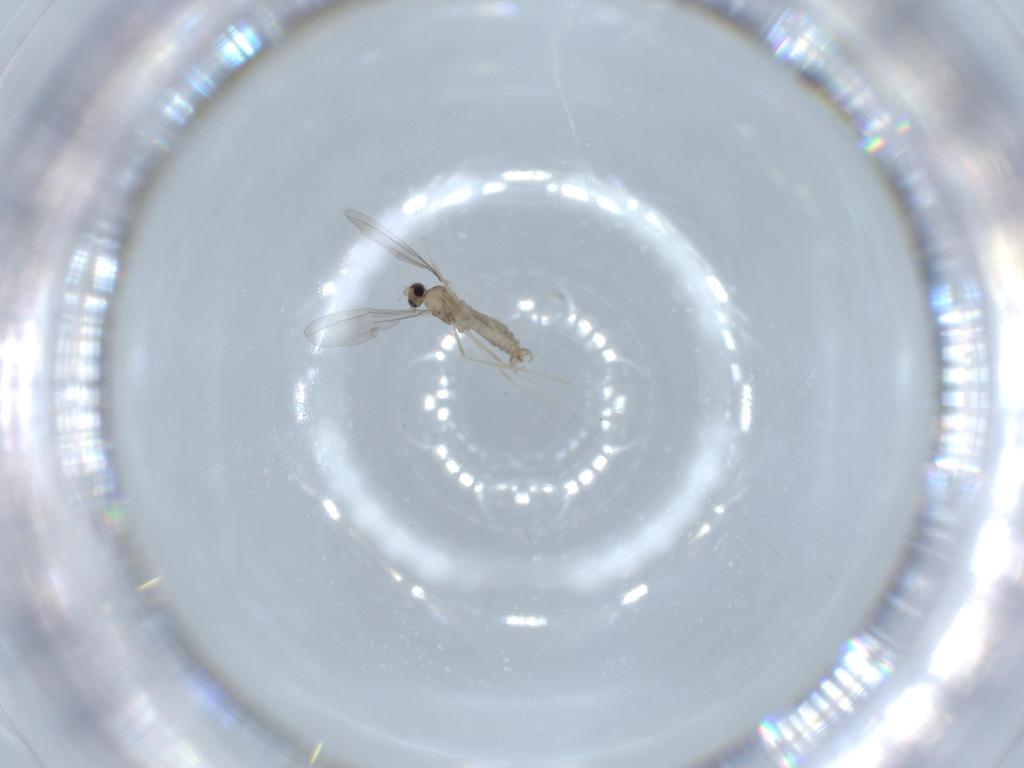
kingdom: Animalia
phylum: Arthropoda
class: Insecta
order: Diptera
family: Cecidomyiidae
